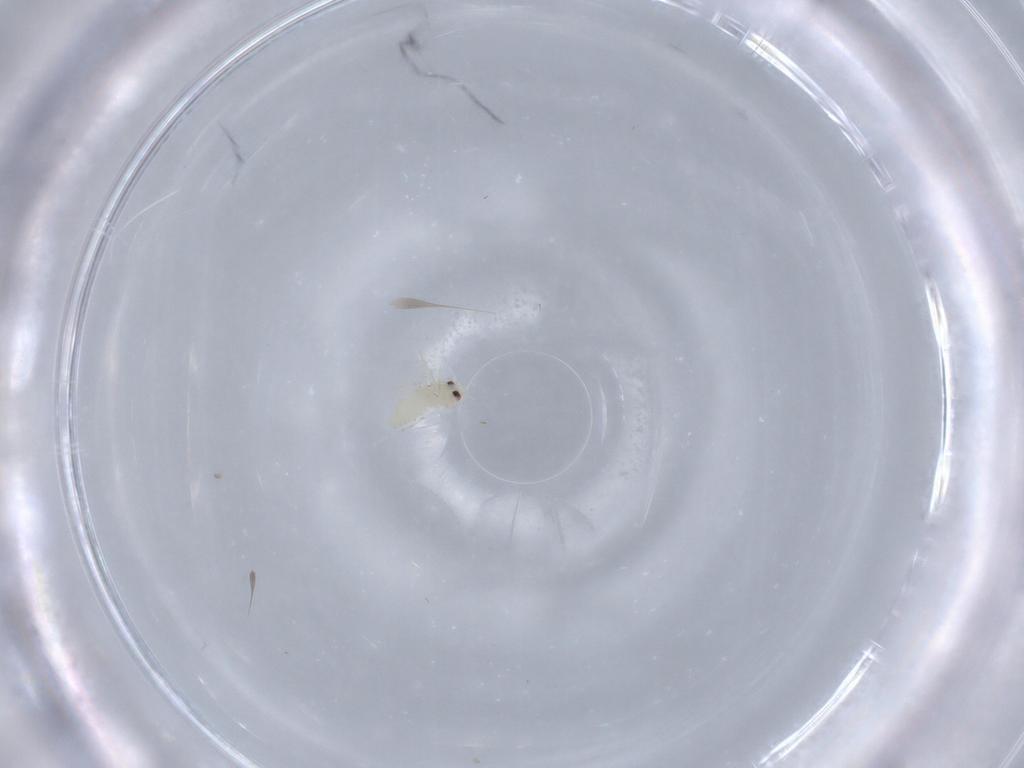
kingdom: Animalia
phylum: Arthropoda
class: Insecta
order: Hemiptera
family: Aleyrodidae
